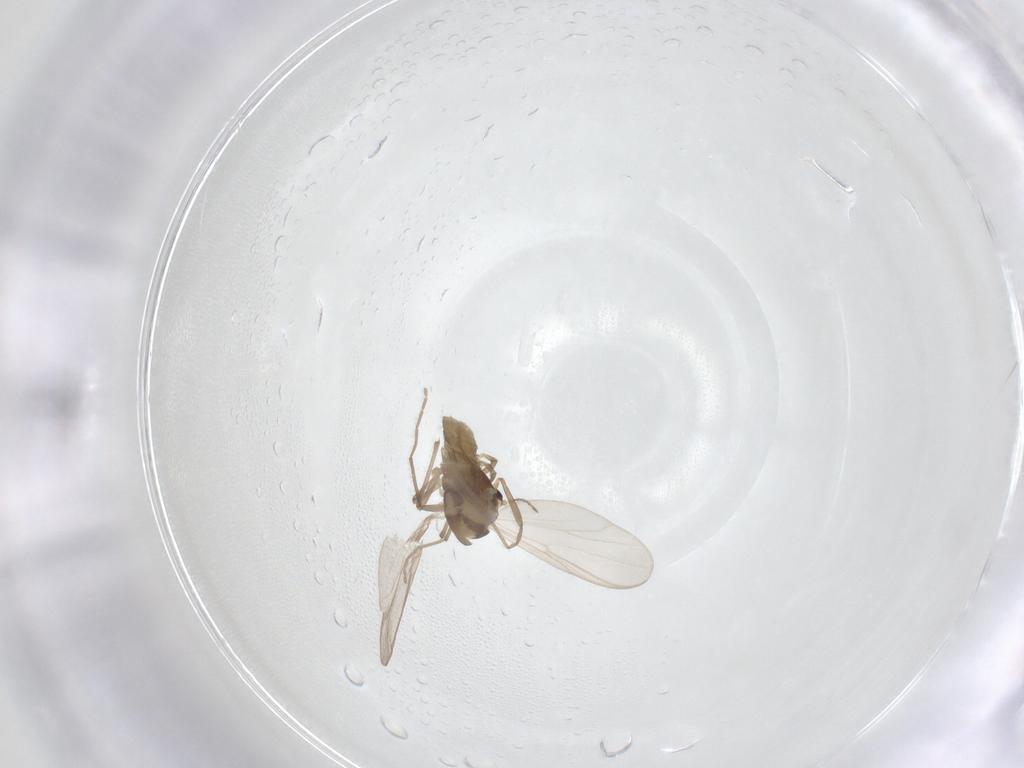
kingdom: Animalia
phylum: Arthropoda
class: Insecta
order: Diptera
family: Chironomidae
